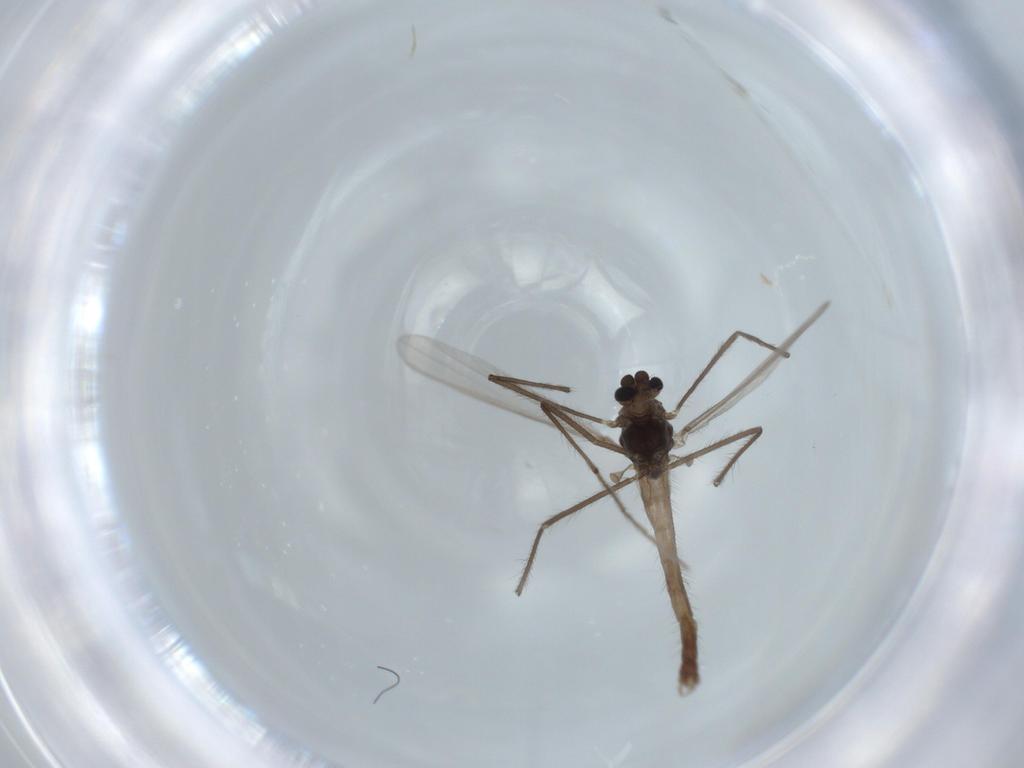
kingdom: Animalia
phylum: Arthropoda
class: Insecta
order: Diptera
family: Chironomidae
